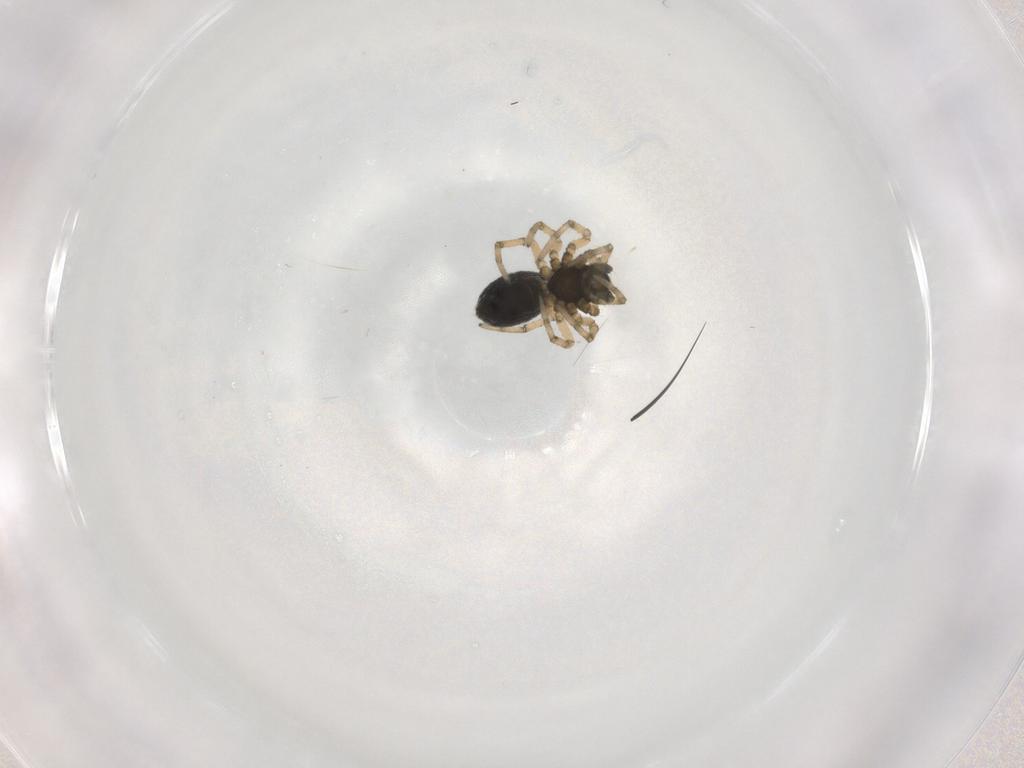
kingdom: Animalia
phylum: Arthropoda
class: Arachnida
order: Araneae
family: Linyphiidae
